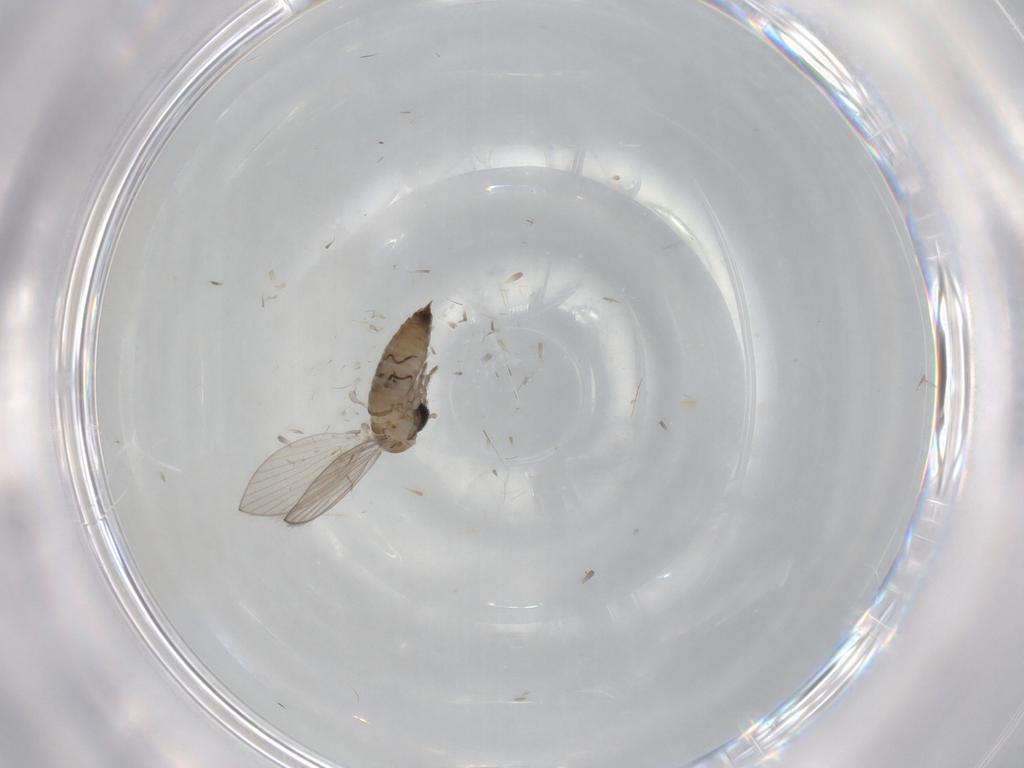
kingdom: Animalia
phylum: Arthropoda
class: Insecta
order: Diptera
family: Psychodidae
